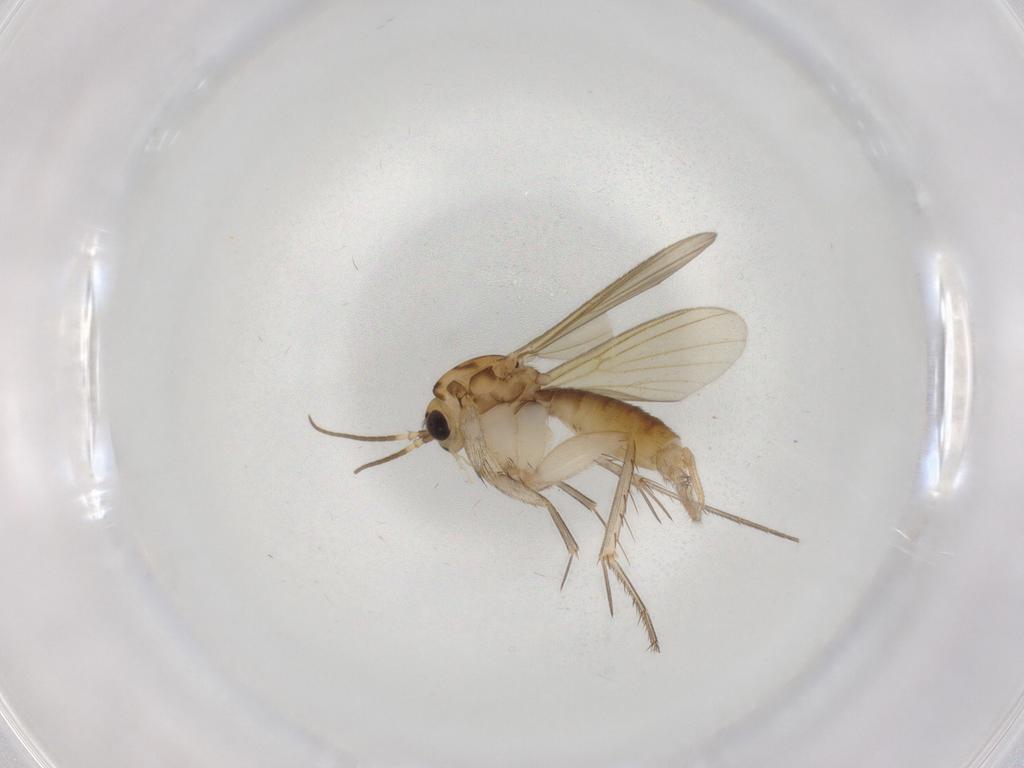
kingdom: Animalia
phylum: Arthropoda
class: Insecta
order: Diptera
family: Mycetophilidae
